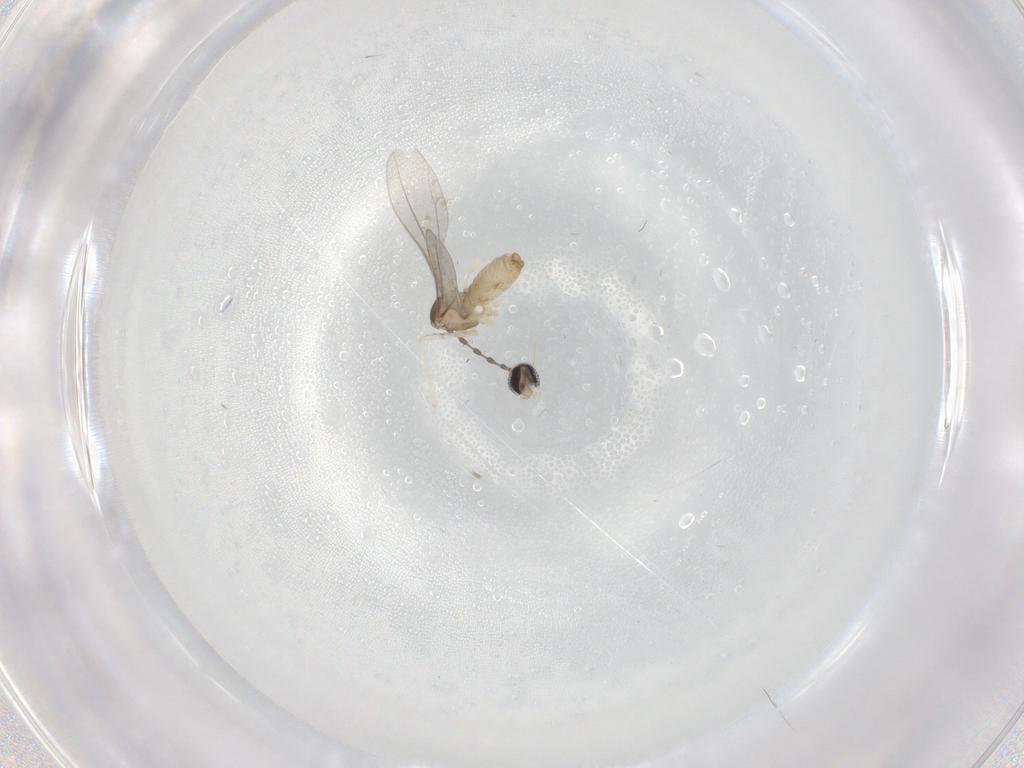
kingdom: Animalia
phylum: Arthropoda
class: Insecta
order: Diptera
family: Cecidomyiidae
